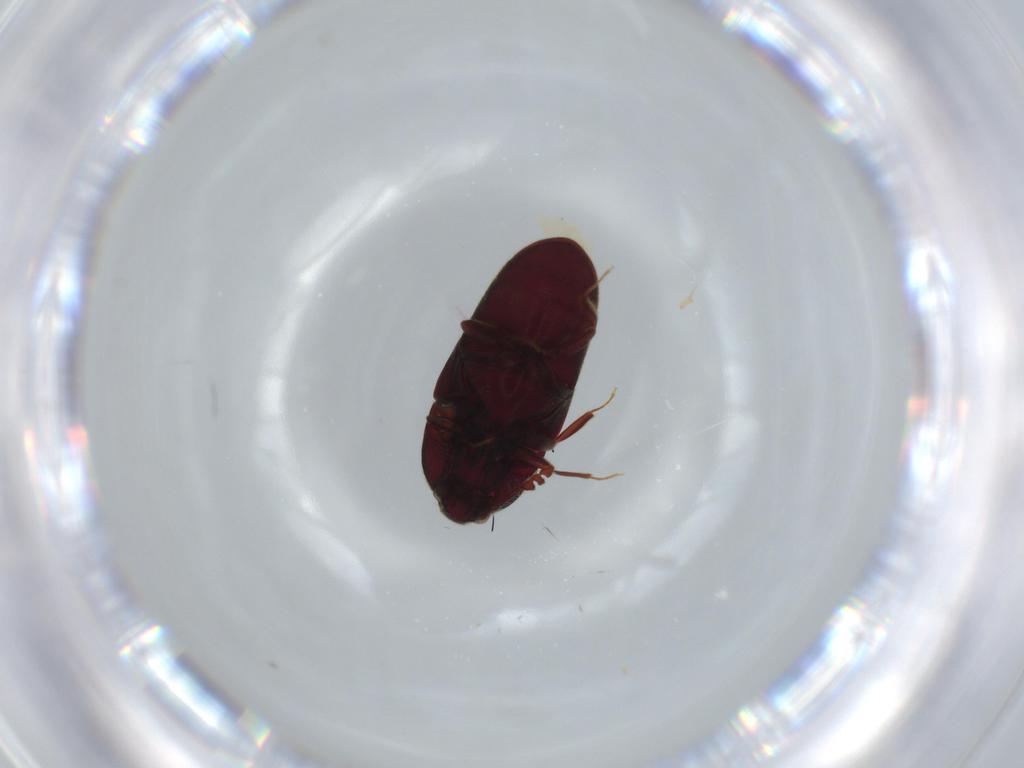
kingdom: Animalia
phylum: Arthropoda
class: Insecta
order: Coleoptera
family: Throscidae
